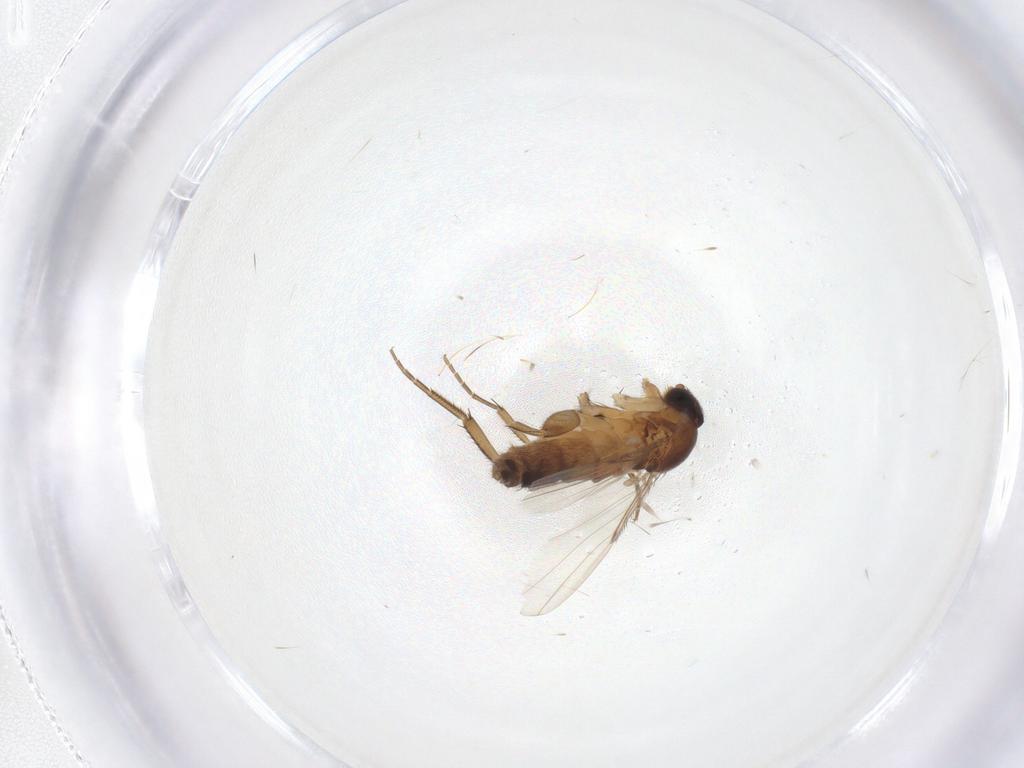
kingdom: Animalia
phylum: Arthropoda
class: Insecta
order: Diptera
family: Phoridae
